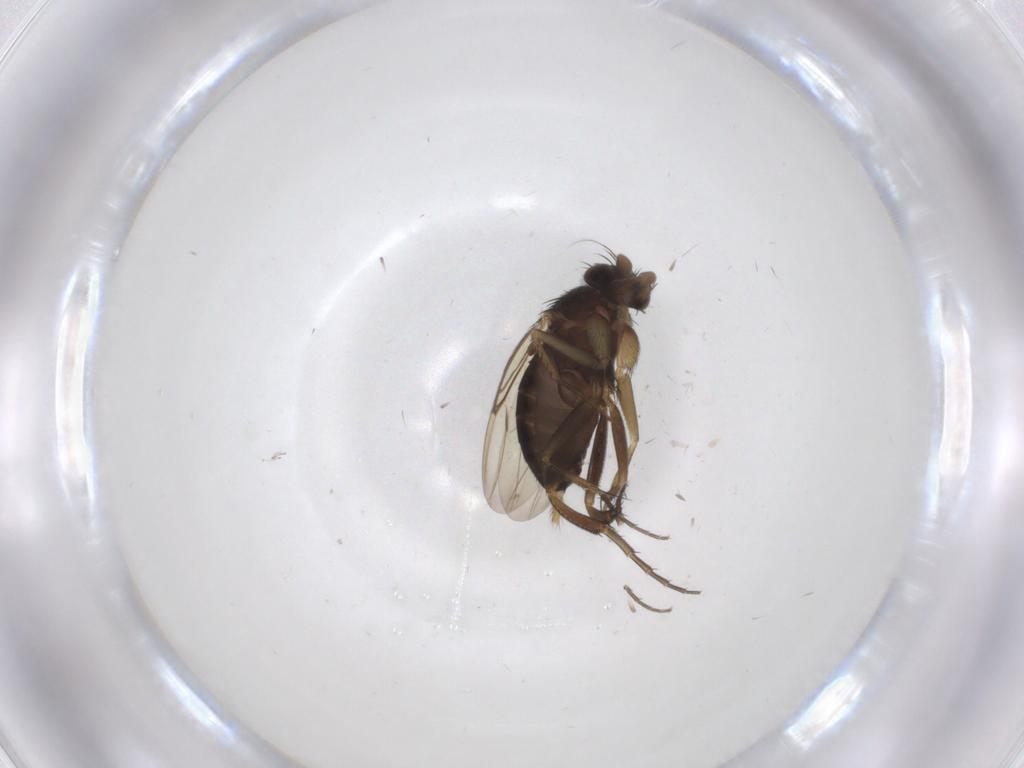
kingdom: Animalia
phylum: Arthropoda
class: Insecta
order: Diptera
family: Phoridae
